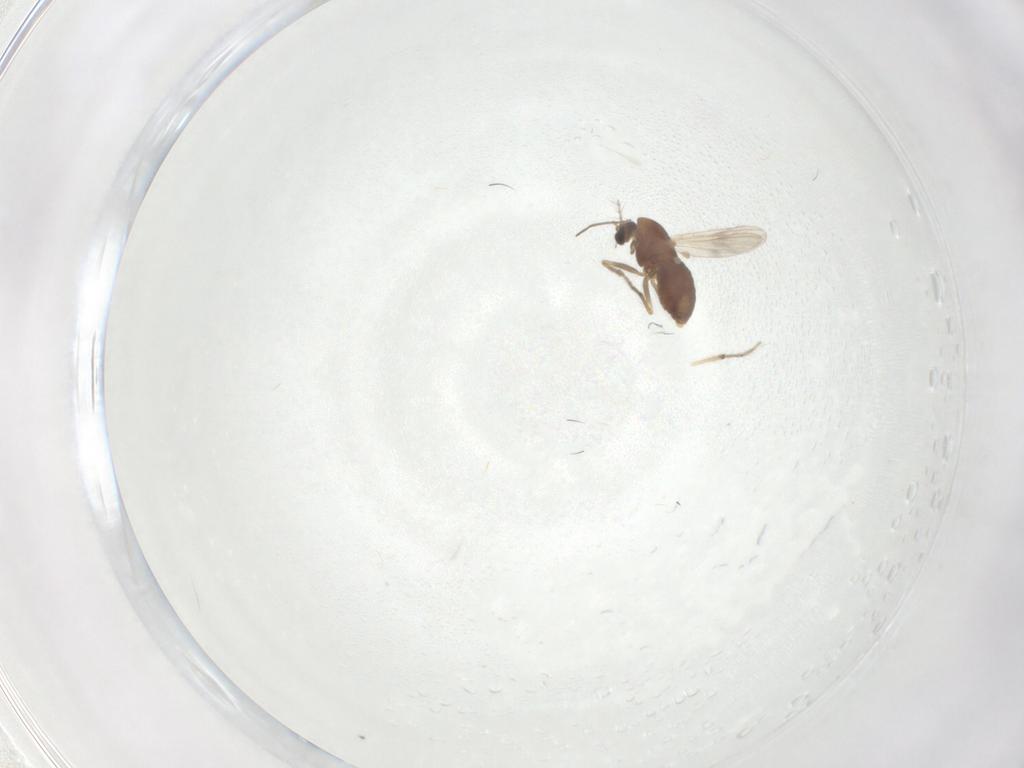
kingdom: Animalia
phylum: Arthropoda
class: Insecta
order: Diptera
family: Chironomidae
